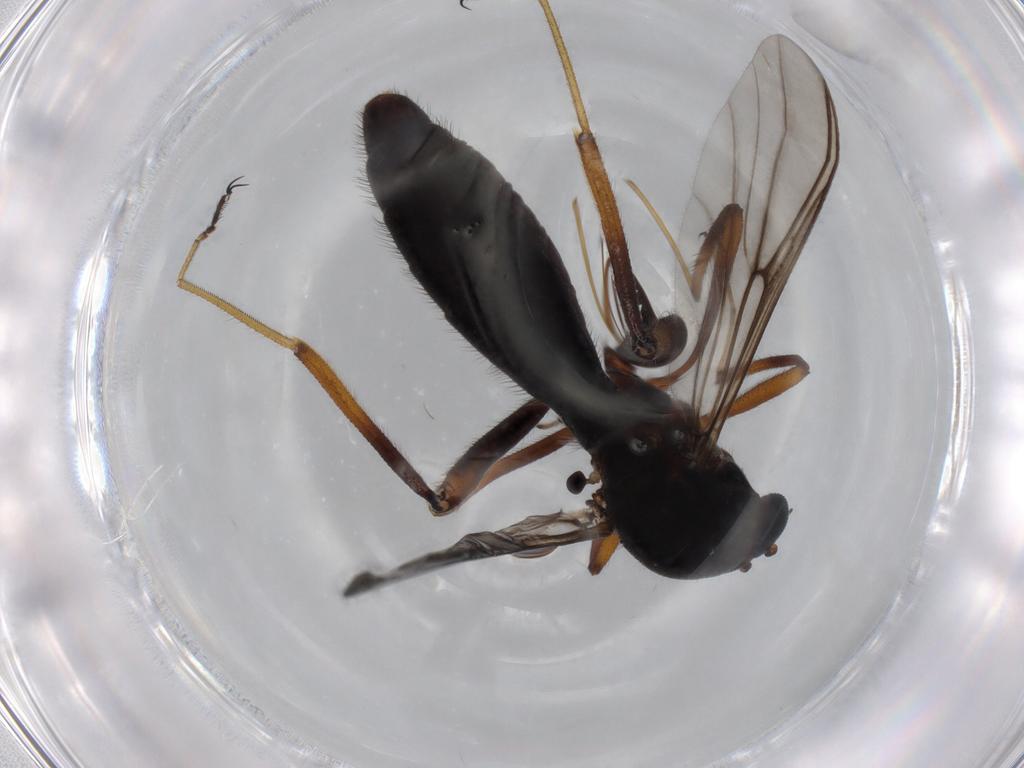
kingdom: Animalia
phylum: Arthropoda
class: Insecta
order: Diptera
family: Ceratopogonidae
